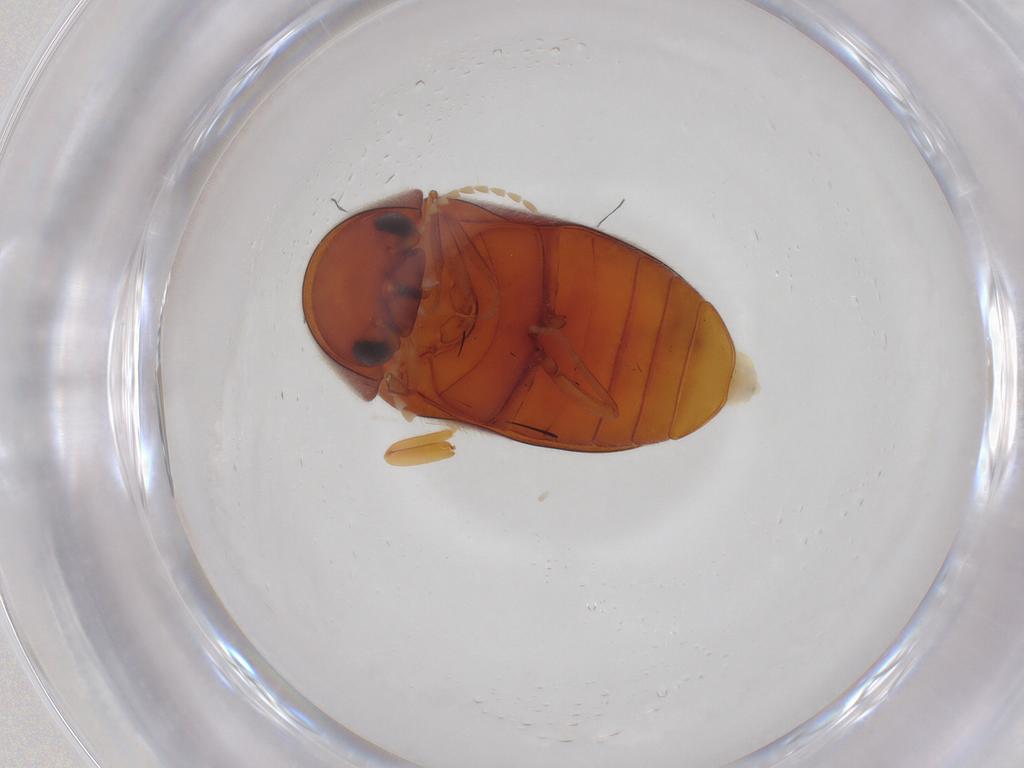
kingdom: Animalia
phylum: Arthropoda
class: Insecta
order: Coleoptera
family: Ptinidae
